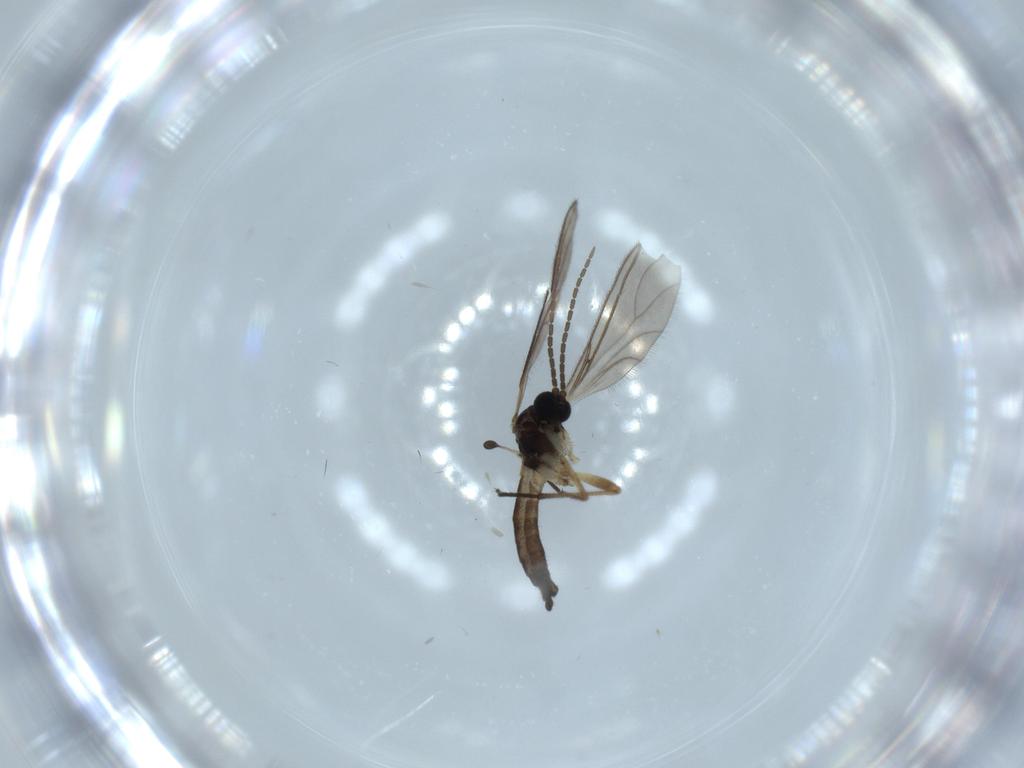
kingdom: Animalia
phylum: Arthropoda
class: Insecta
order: Diptera
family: Sciaridae
